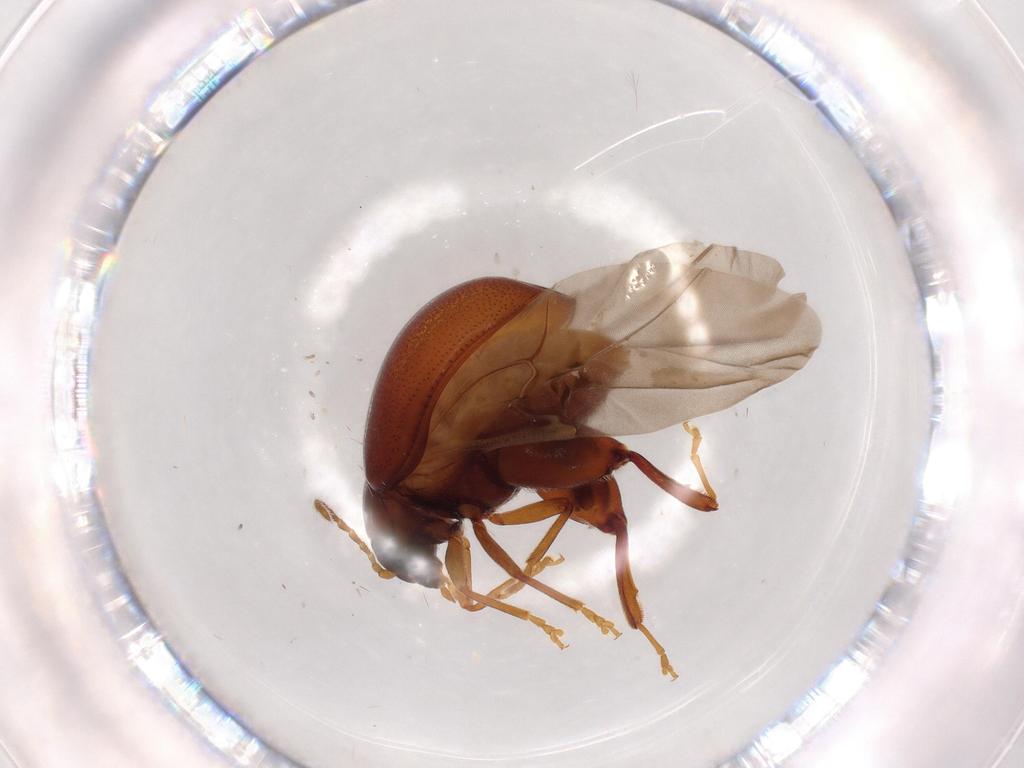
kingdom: Animalia
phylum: Arthropoda
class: Insecta
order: Coleoptera
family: Chrysomelidae
